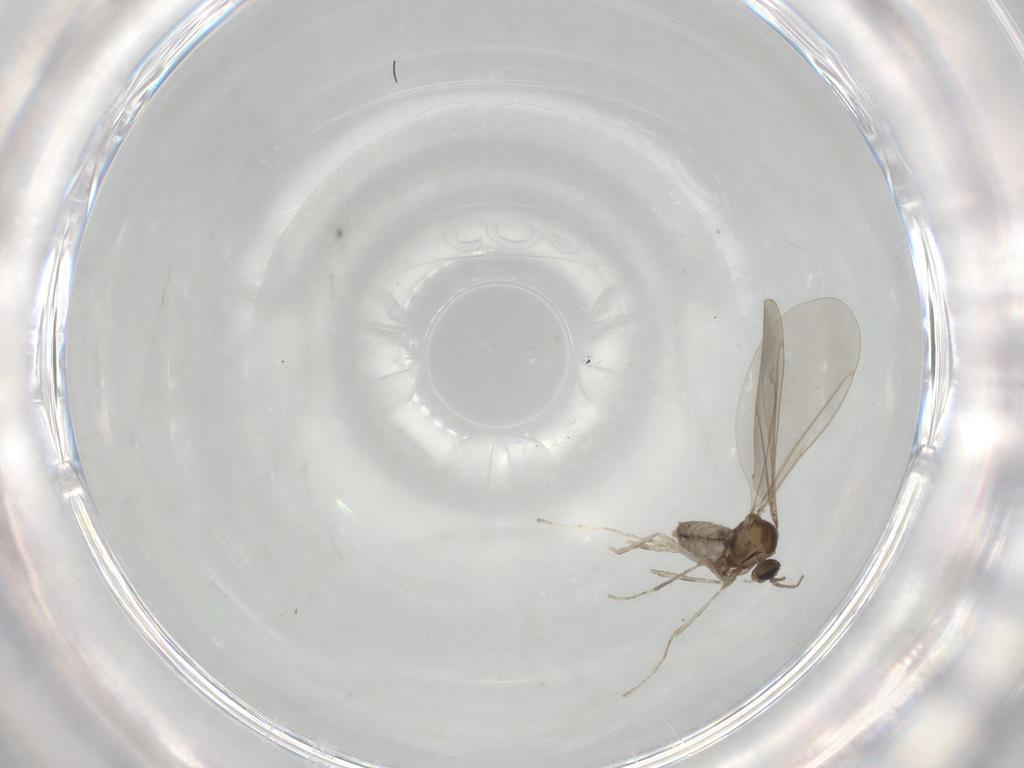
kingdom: Animalia
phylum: Arthropoda
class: Insecta
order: Diptera
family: Cecidomyiidae
